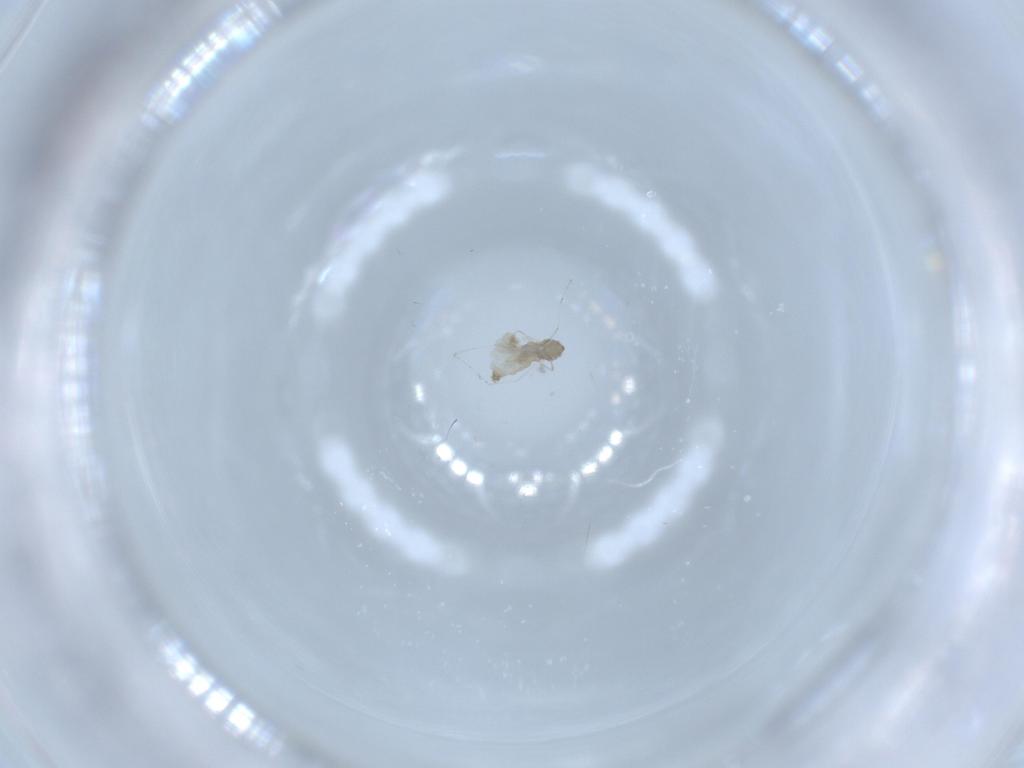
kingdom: Animalia
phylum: Arthropoda
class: Insecta
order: Diptera
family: Cecidomyiidae
